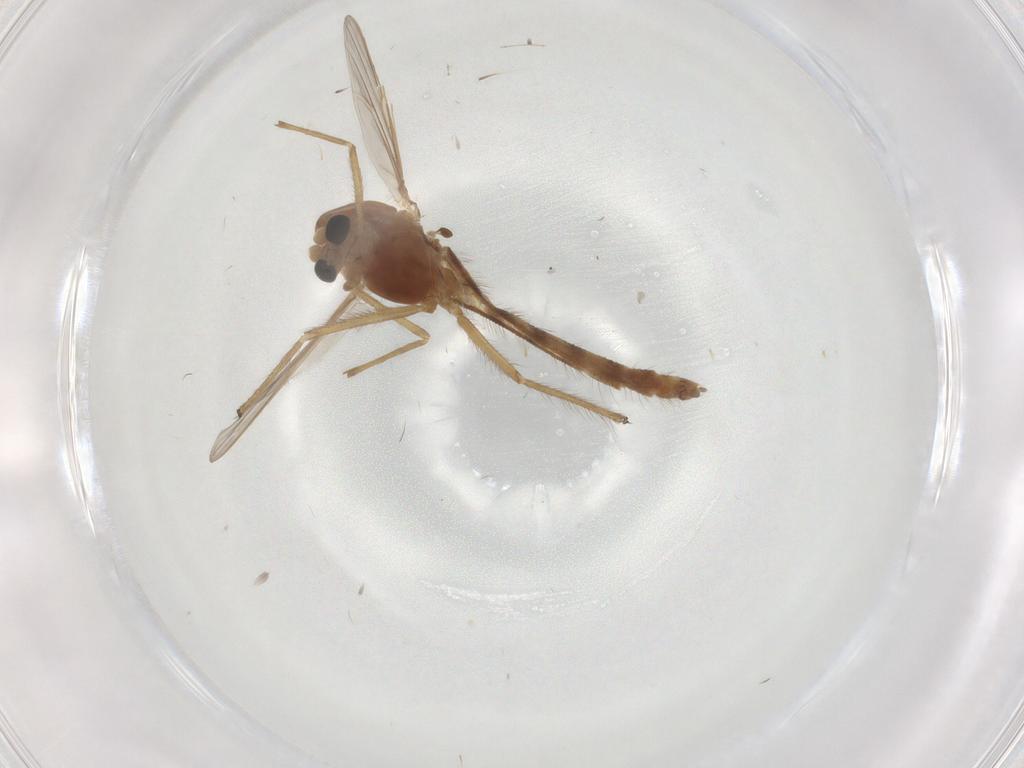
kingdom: Animalia
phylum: Arthropoda
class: Insecta
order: Diptera
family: Chironomidae
